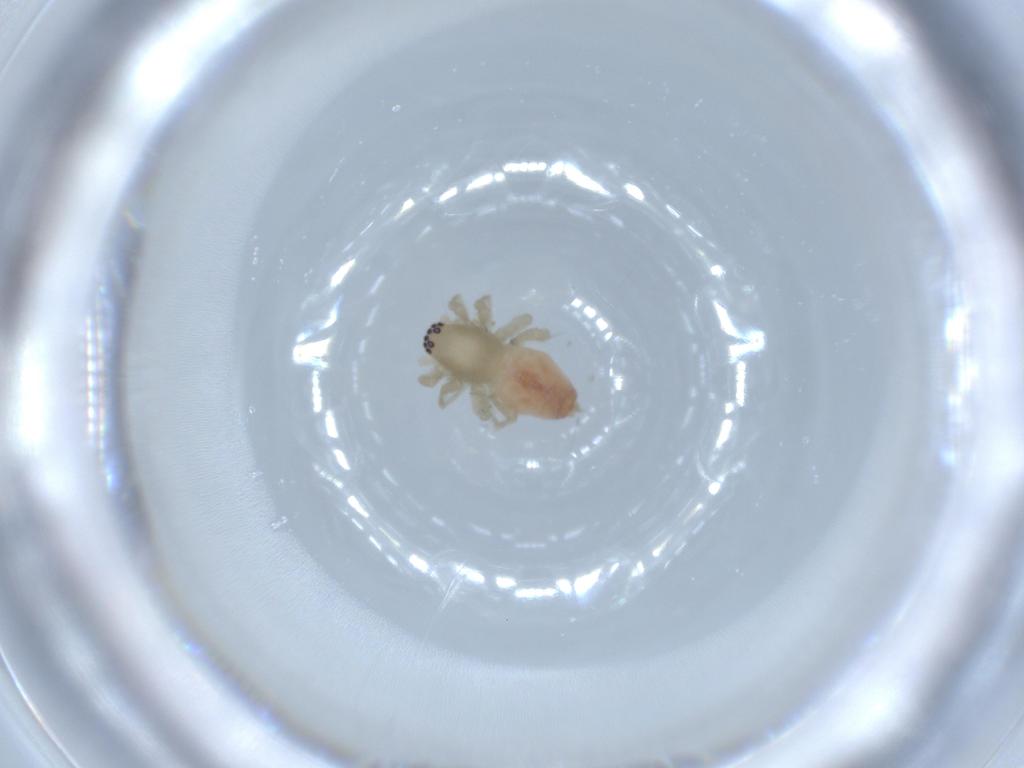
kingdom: Animalia
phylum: Arthropoda
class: Arachnida
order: Araneae
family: Clubionidae
